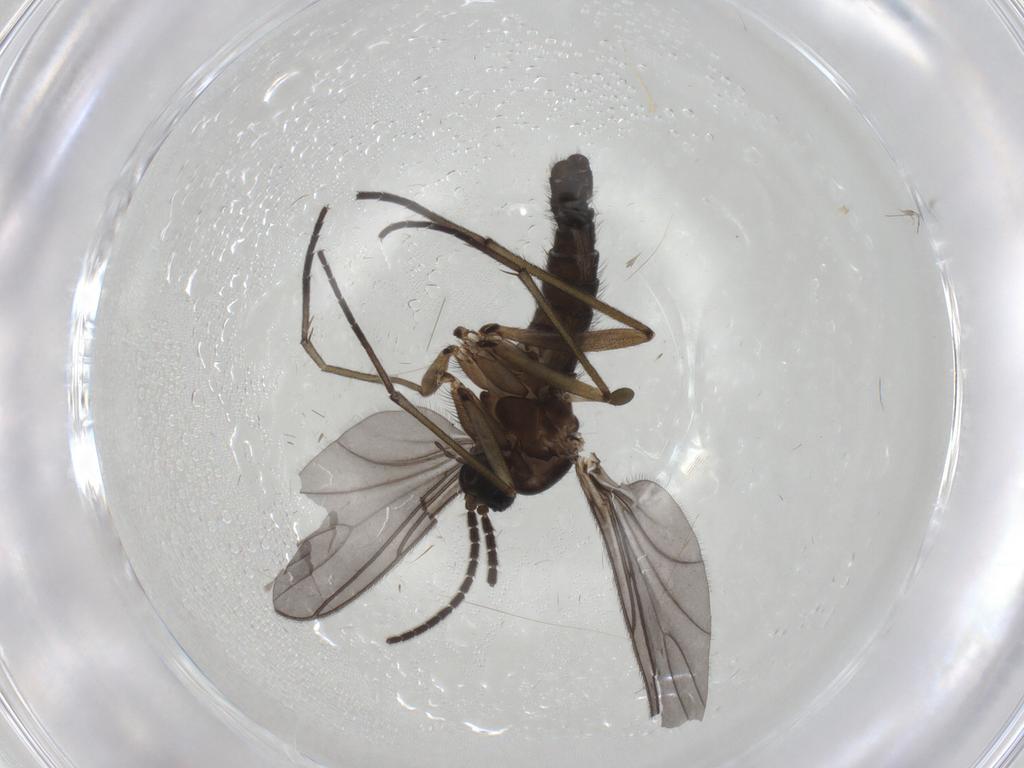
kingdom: Animalia
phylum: Arthropoda
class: Insecta
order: Diptera
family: Sciaridae
